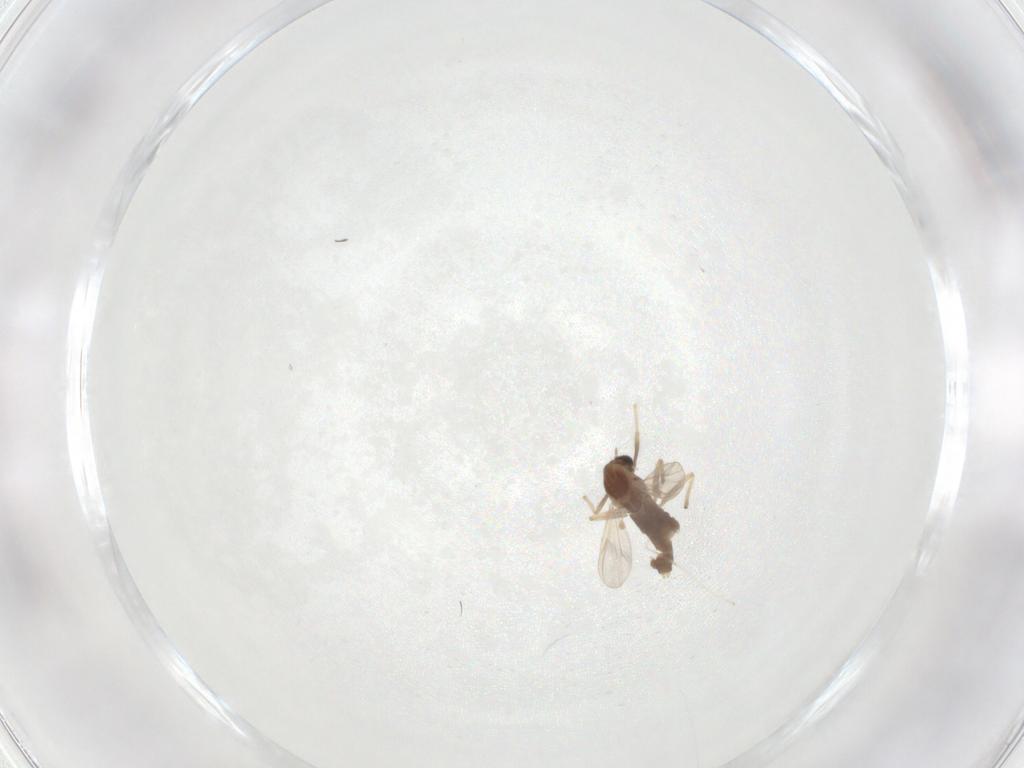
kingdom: Animalia
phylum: Arthropoda
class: Insecta
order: Diptera
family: Chironomidae
